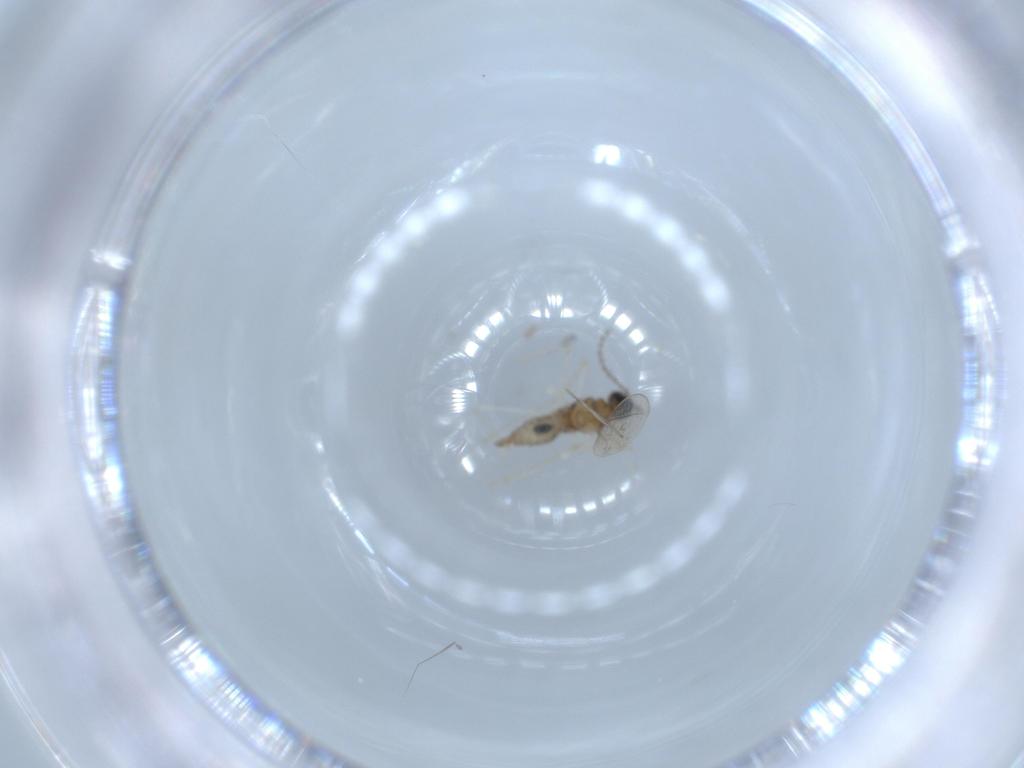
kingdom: Animalia
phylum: Arthropoda
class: Insecta
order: Diptera
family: Cecidomyiidae
